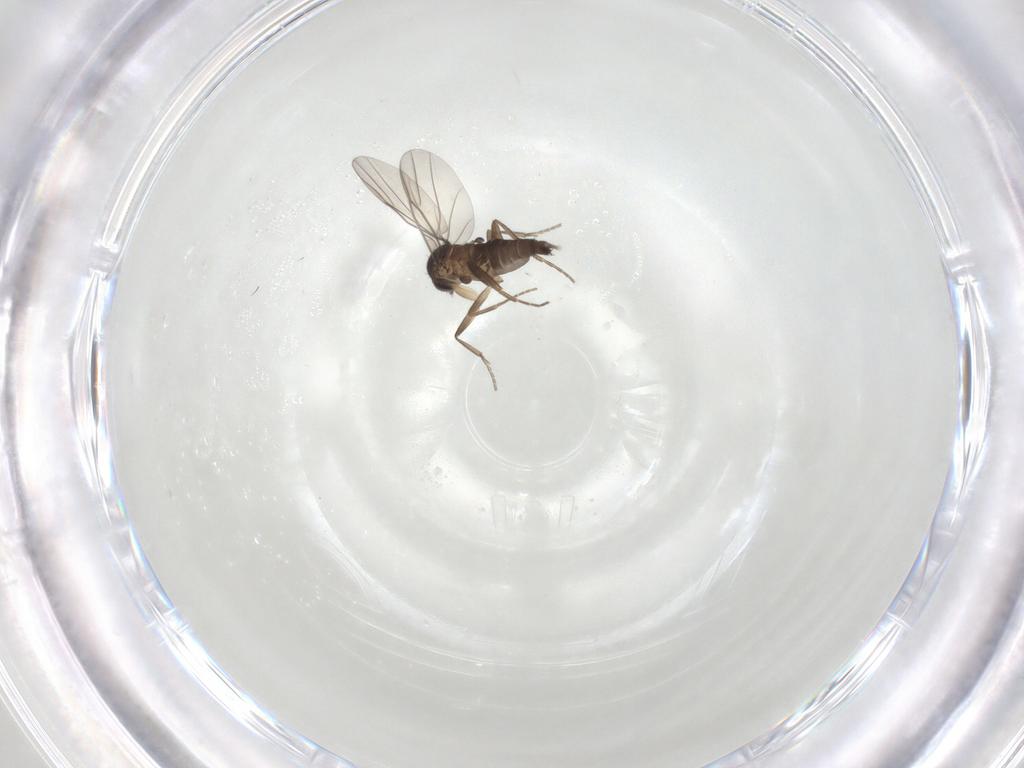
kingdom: Animalia
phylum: Arthropoda
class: Insecta
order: Diptera
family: Phoridae
